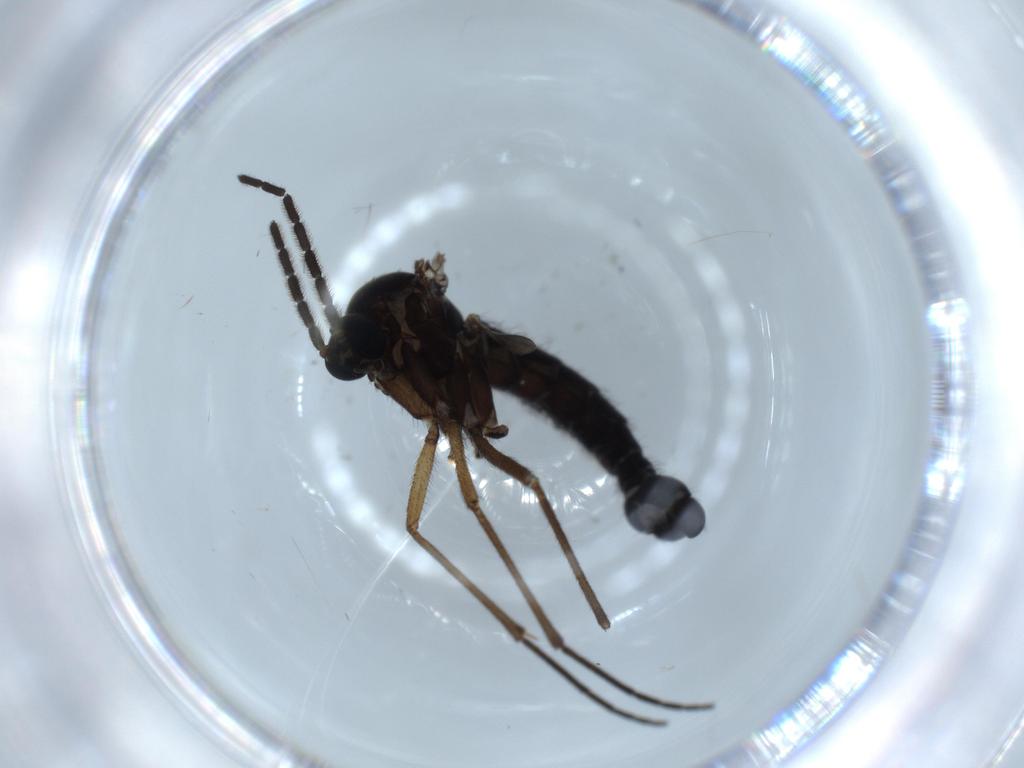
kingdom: Animalia
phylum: Arthropoda
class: Insecta
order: Diptera
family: Sciaridae
